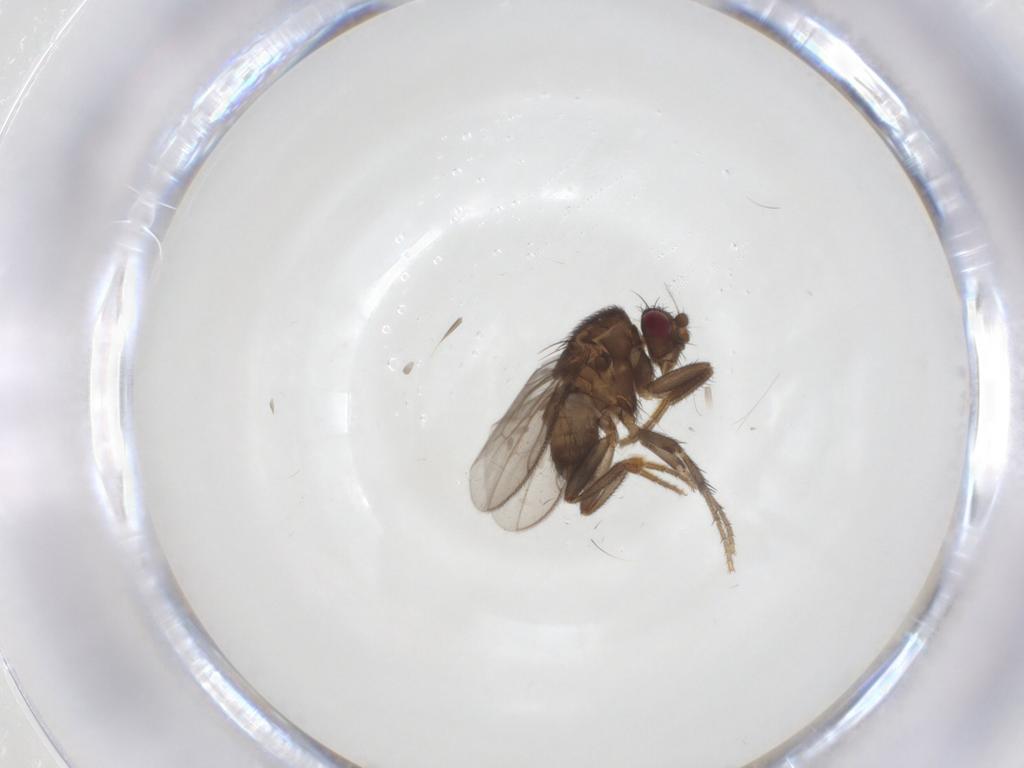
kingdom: Animalia
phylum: Arthropoda
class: Insecta
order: Diptera
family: Sphaeroceridae
